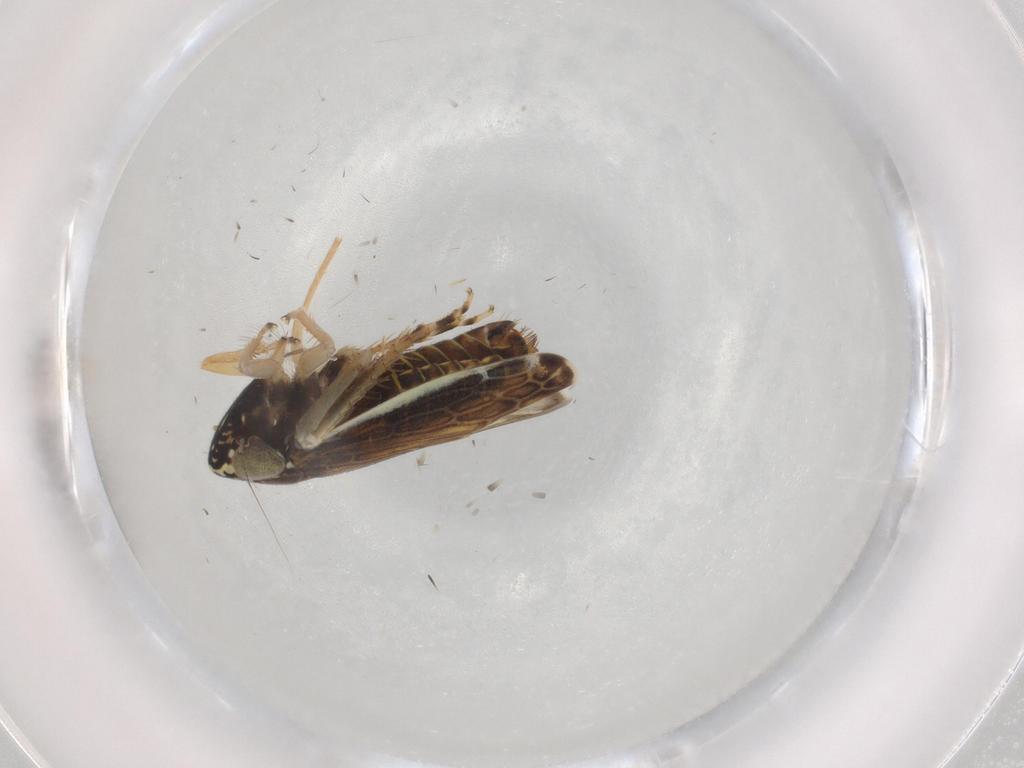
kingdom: Animalia
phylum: Arthropoda
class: Insecta
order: Hemiptera
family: Cicadellidae
